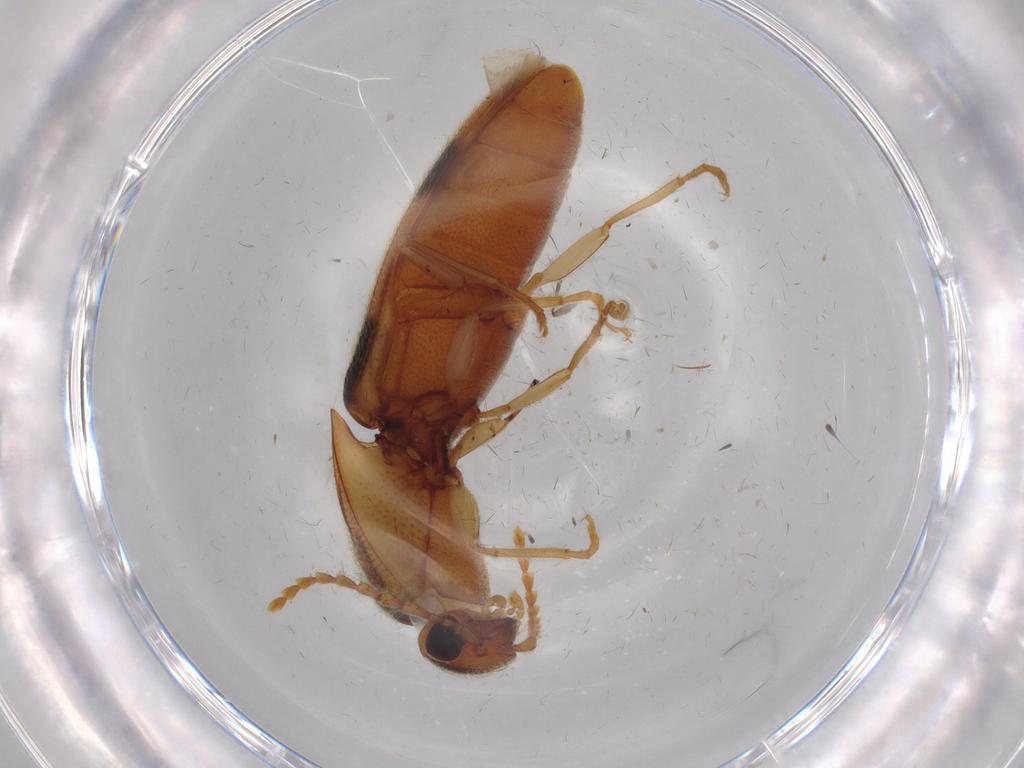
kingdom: Animalia
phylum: Arthropoda
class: Insecta
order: Coleoptera
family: Elateridae
